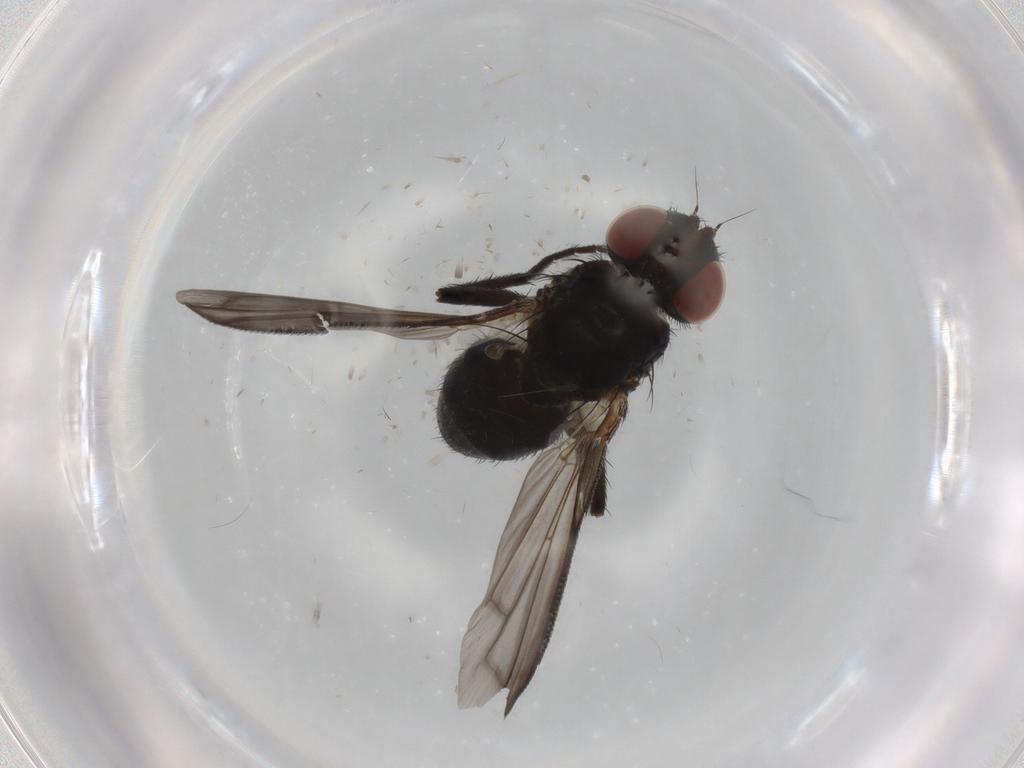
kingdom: Animalia
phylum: Arthropoda
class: Insecta
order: Diptera
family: Tachinidae
